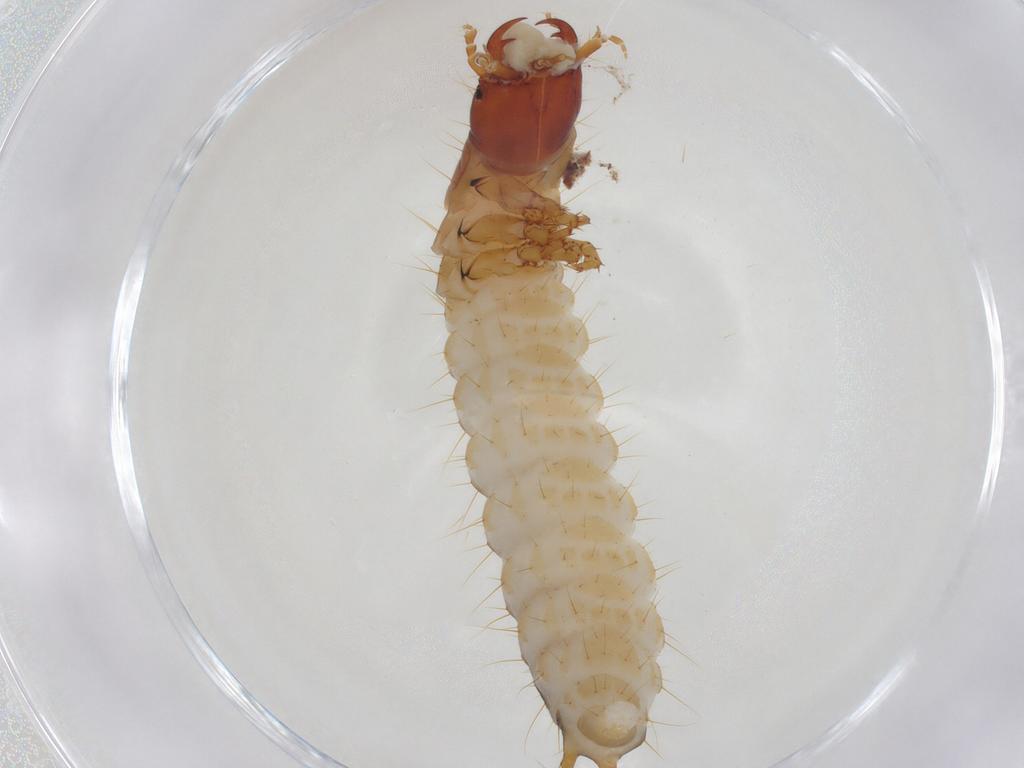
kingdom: Animalia
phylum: Arthropoda
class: Insecta
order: Coleoptera
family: Carabidae
